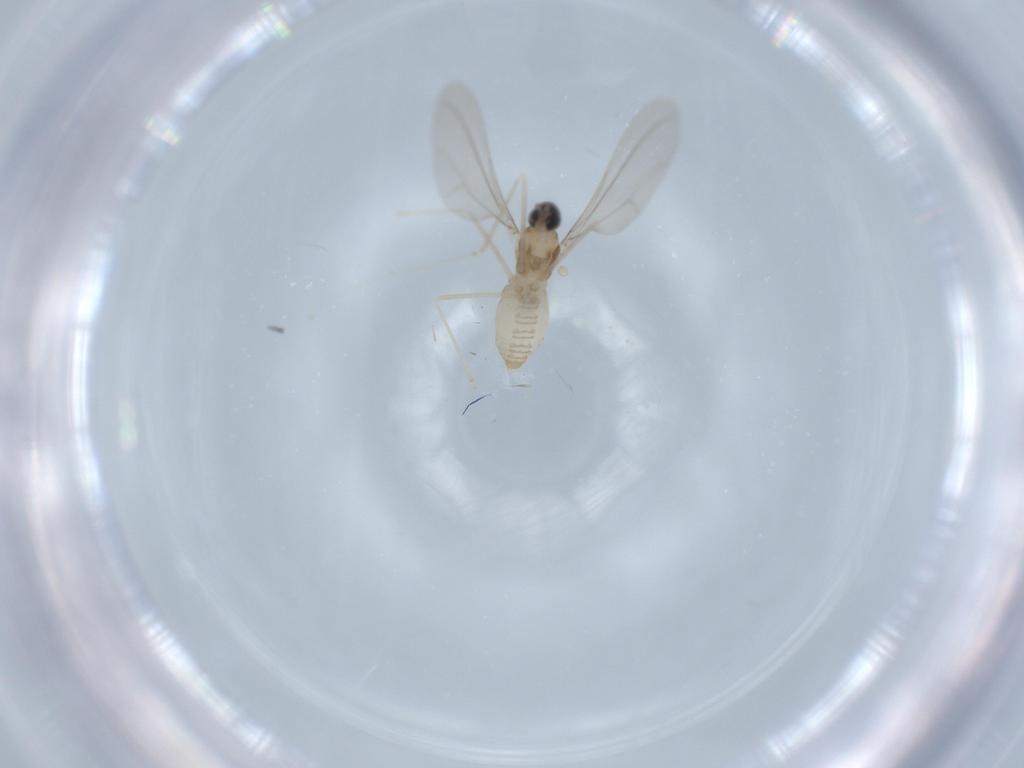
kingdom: Animalia
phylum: Arthropoda
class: Insecta
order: Diptera
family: Cecidomyiidae
